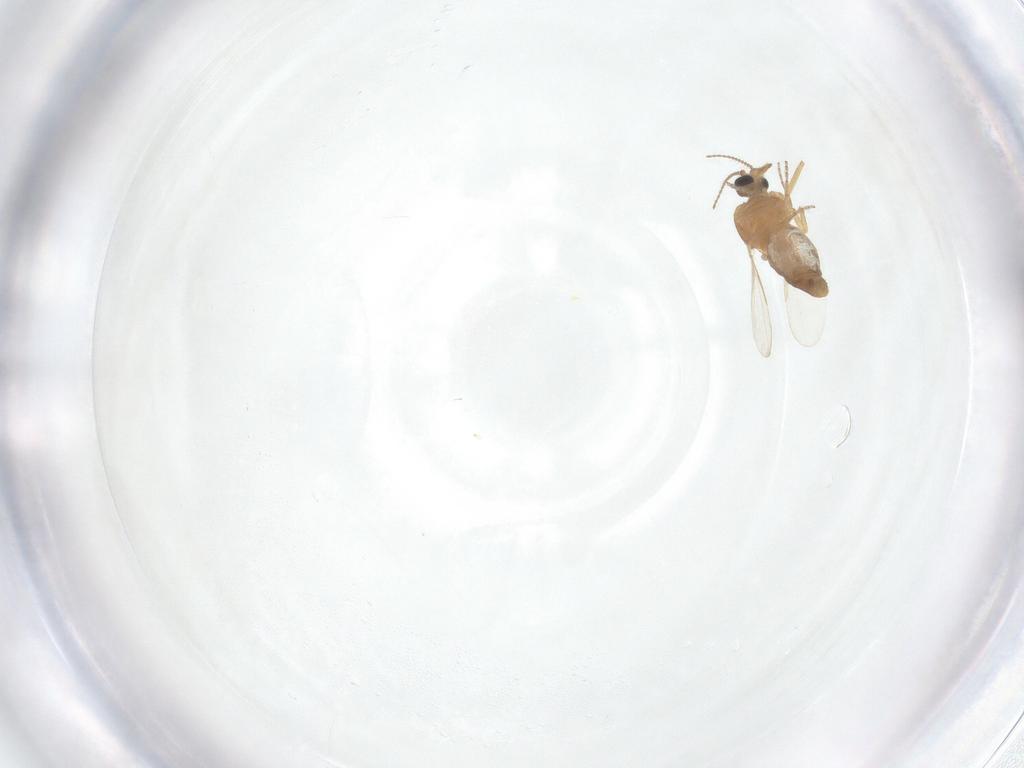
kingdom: Animalia
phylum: Arthropoda
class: Insecta
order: Diptera
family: Ceratopogonidae
